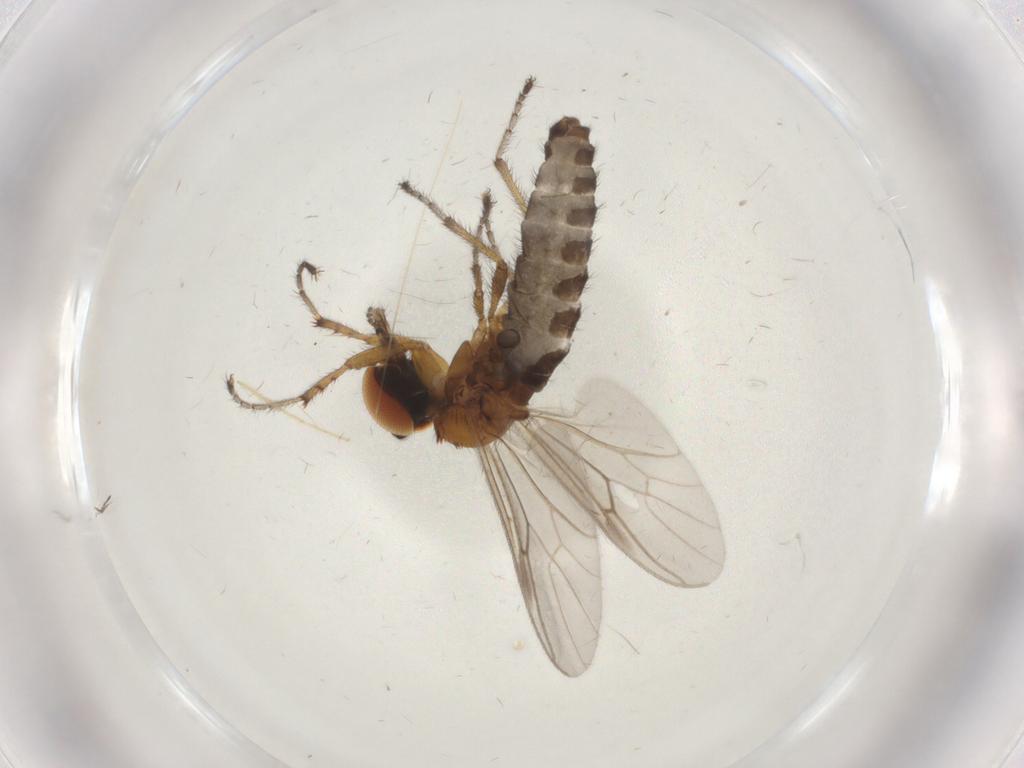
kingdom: Animalia
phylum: Arthropoda
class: Insecta
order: Diptera
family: Bibionidae
